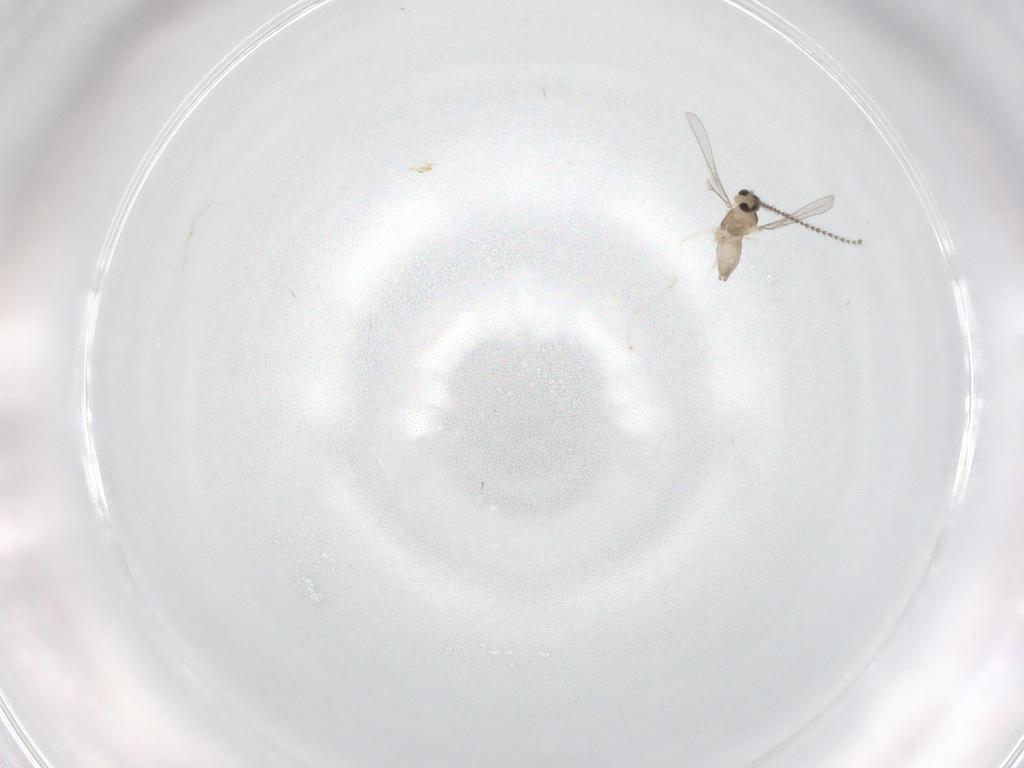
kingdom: Animalia
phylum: Arthropoda
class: Insecta
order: Diptera
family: Cecidomyiidae
